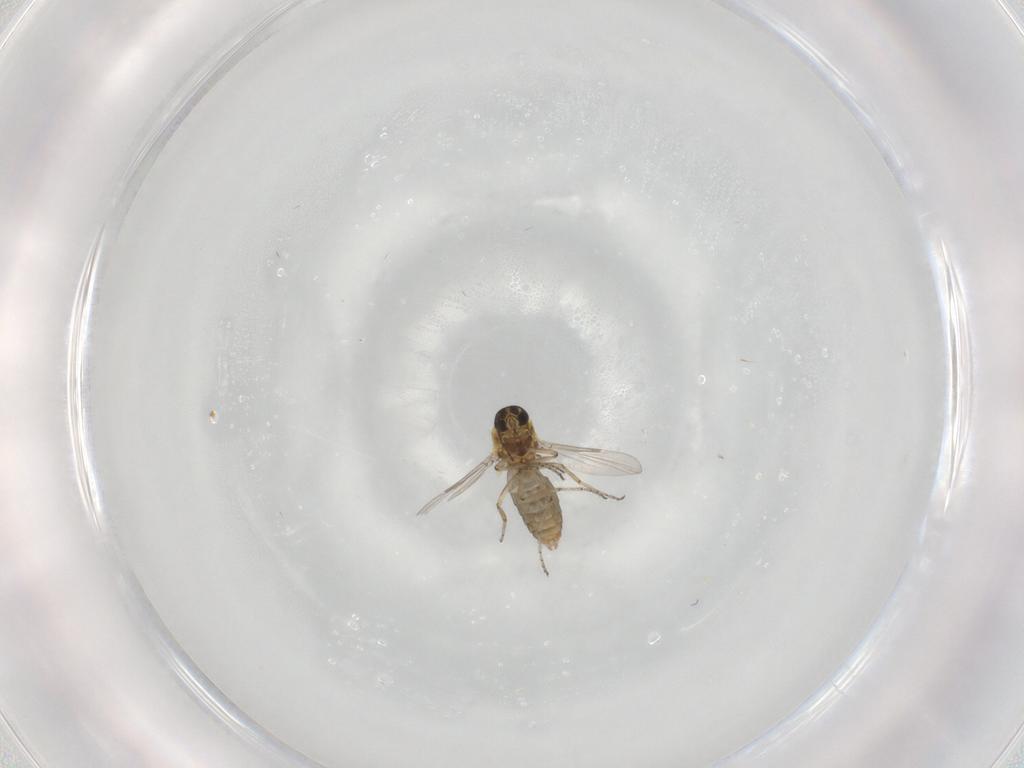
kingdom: Animalia
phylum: Arthropoda
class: Insecta
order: Diptera
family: Ceratopogonidae
